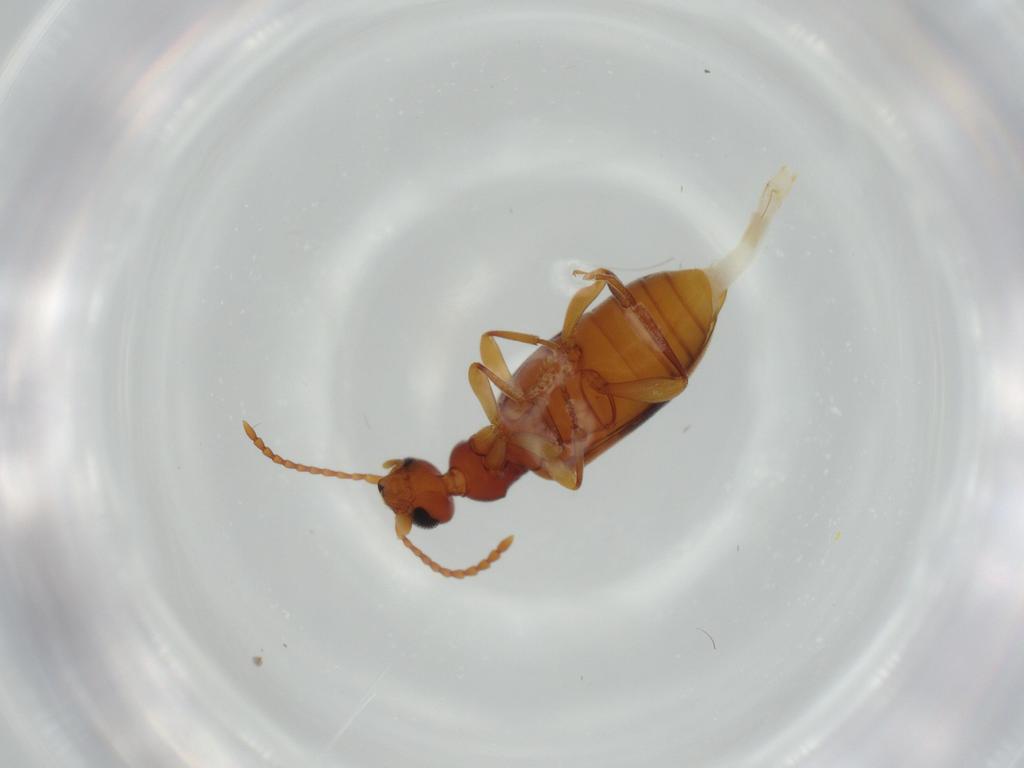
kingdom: Animalia
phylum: Arthropoda
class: Insecta
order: Coleoptera
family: Anthicidae
